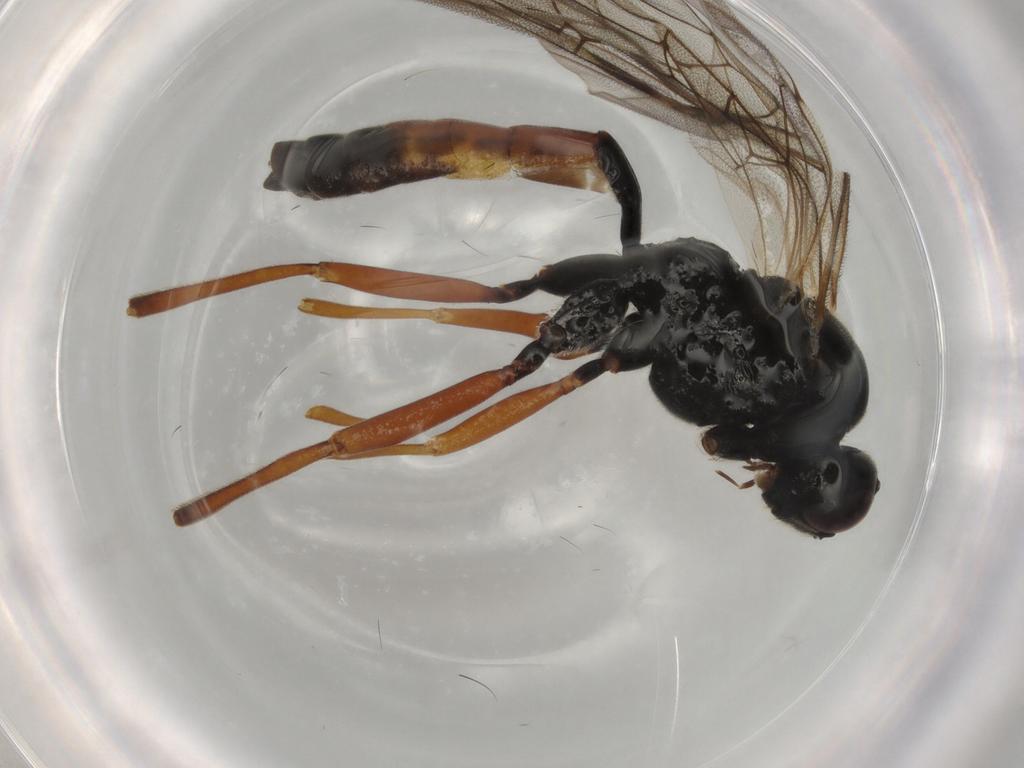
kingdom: Animalia
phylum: Arthropoda
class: Insecta
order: Hymenoptera
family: Formicidae
